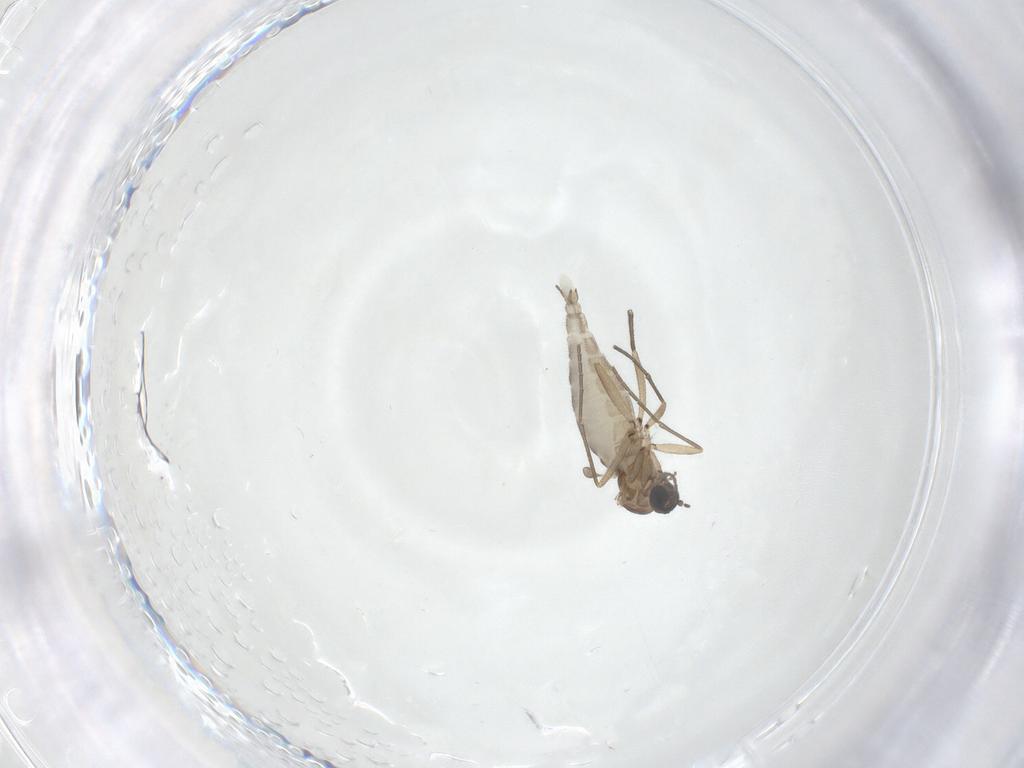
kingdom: Animalia
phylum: Arthropoda
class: Insecta
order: Diptera
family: Sciaridae
